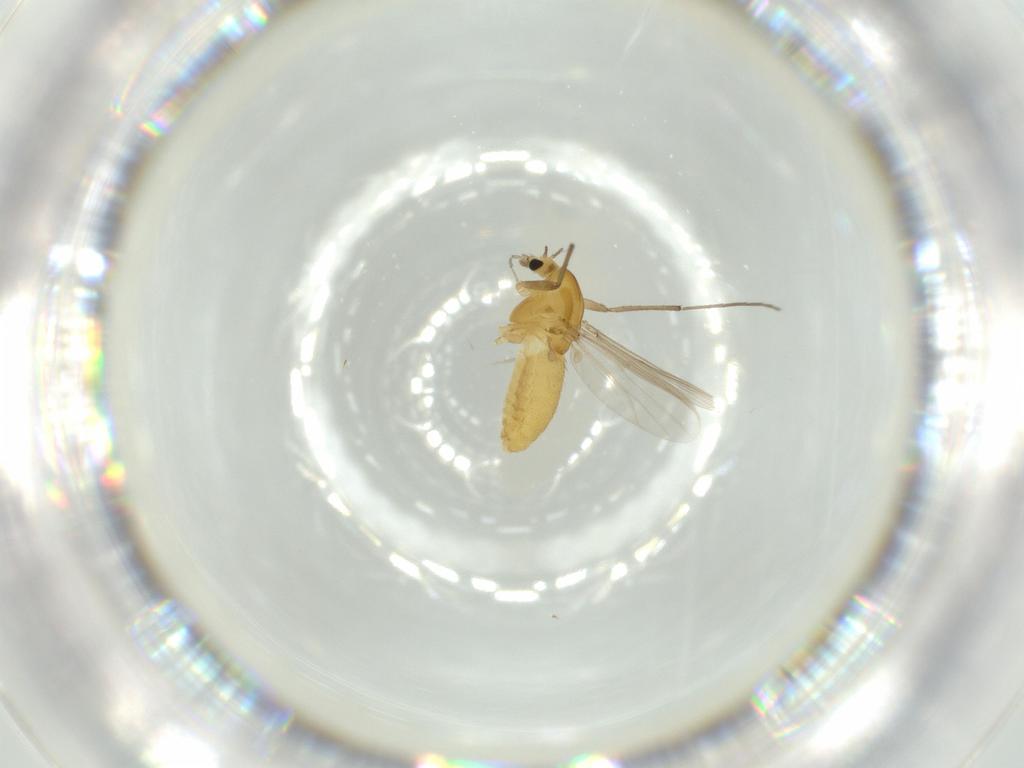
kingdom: Animalia
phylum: Arthropoda
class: Insecta
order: Diptera
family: Chironomidae
